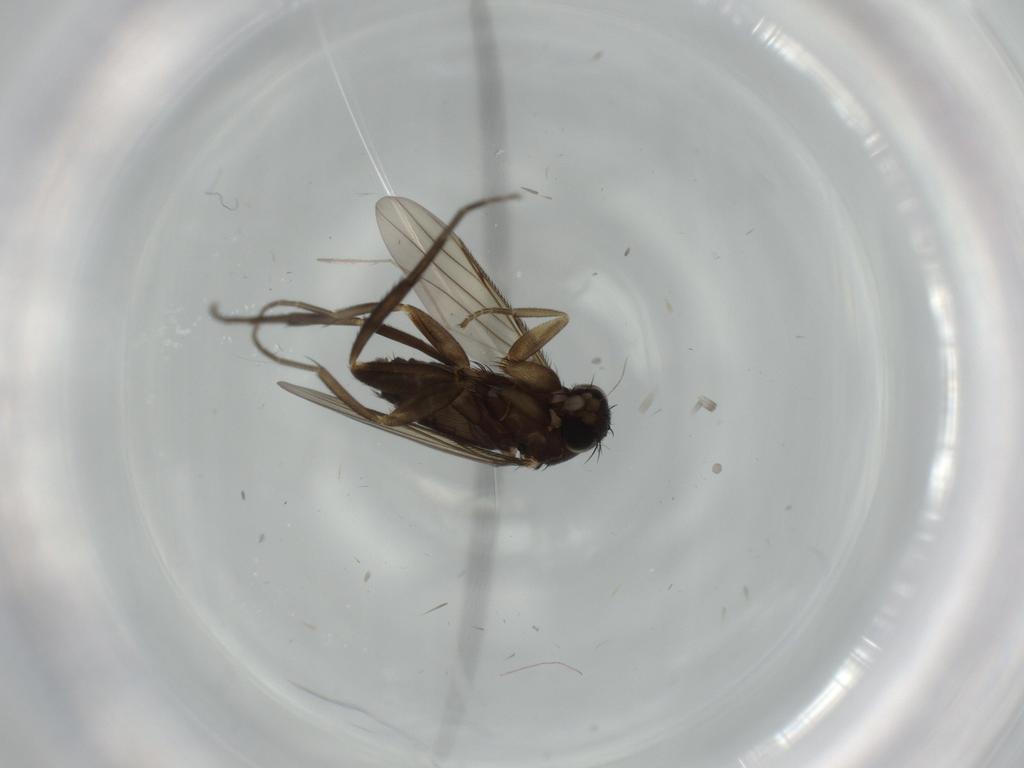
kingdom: Animalia
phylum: Arthropoda
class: Insecta
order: Diptera
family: Phoridae
